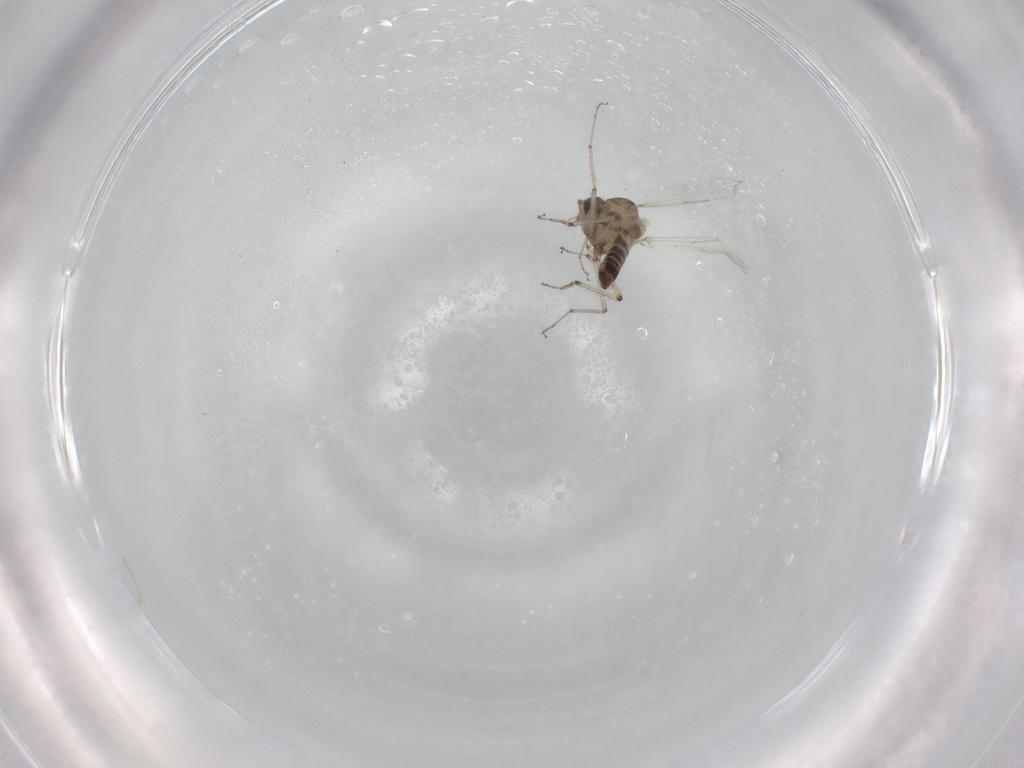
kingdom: Animalia
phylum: Arthropoda
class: Insecta
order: Diptera
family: Ceratopogonidae
